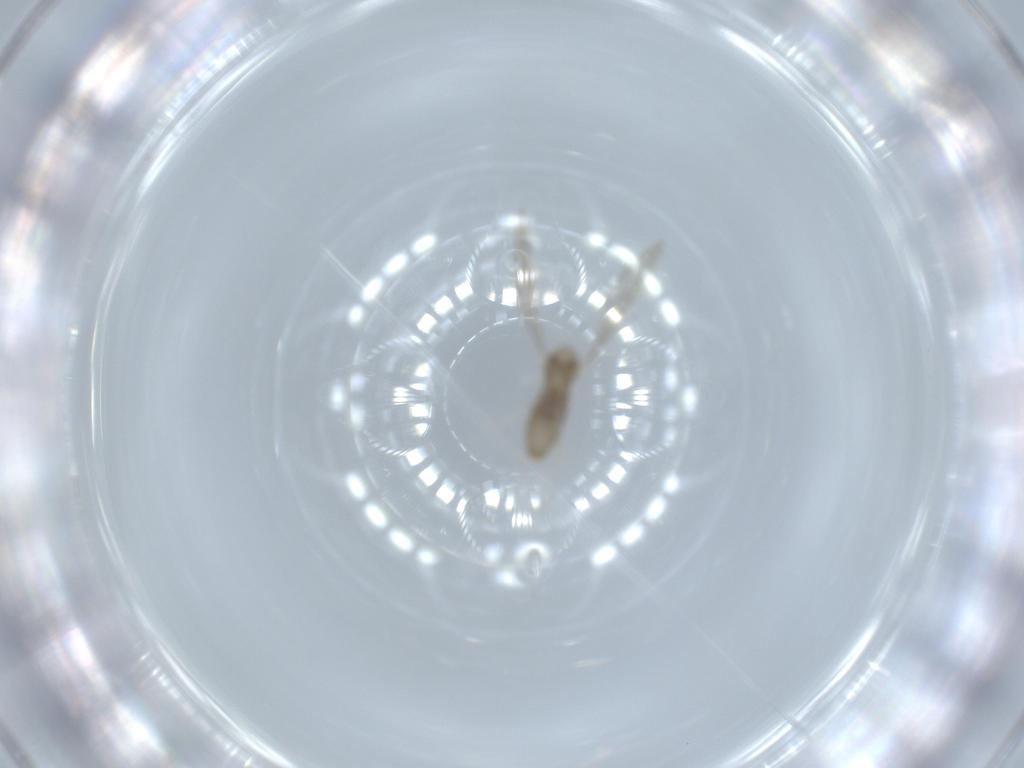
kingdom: Animalia
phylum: Arthropoda
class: Insecta
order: Diptera
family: Cecidomyiidae
